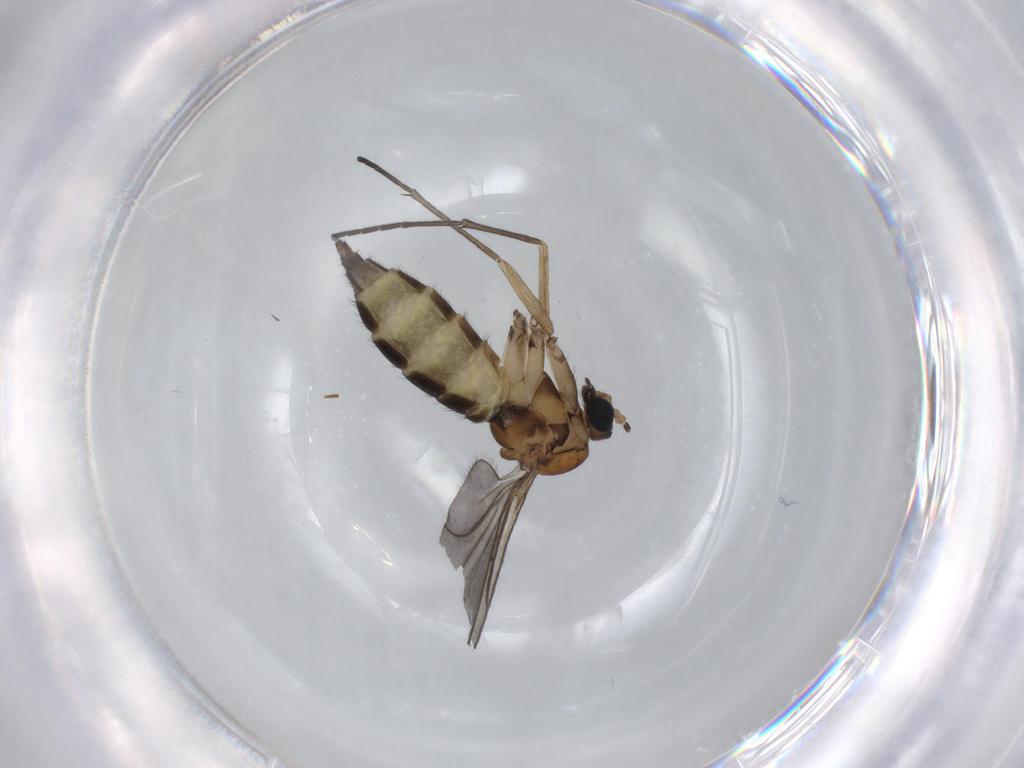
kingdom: Animalia
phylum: Arthropoda
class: Insecta
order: Diptera
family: Sciaridae
